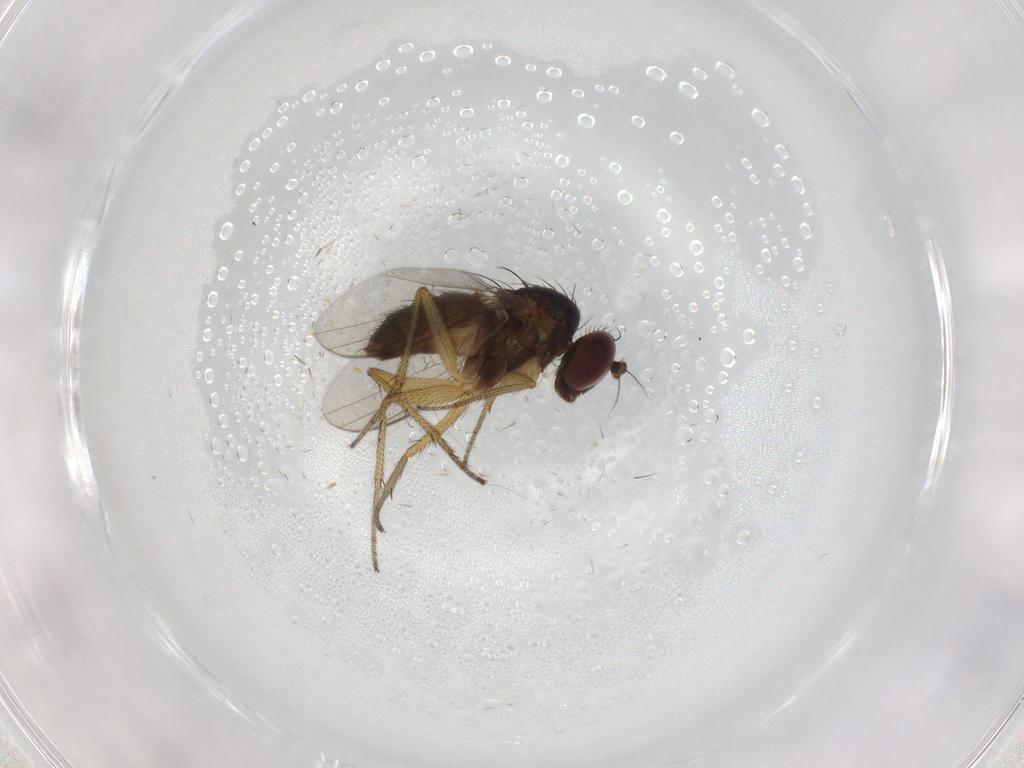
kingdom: Animalia
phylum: Arthropoda
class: Insecta
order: Diptera
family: Dolichopodidae
